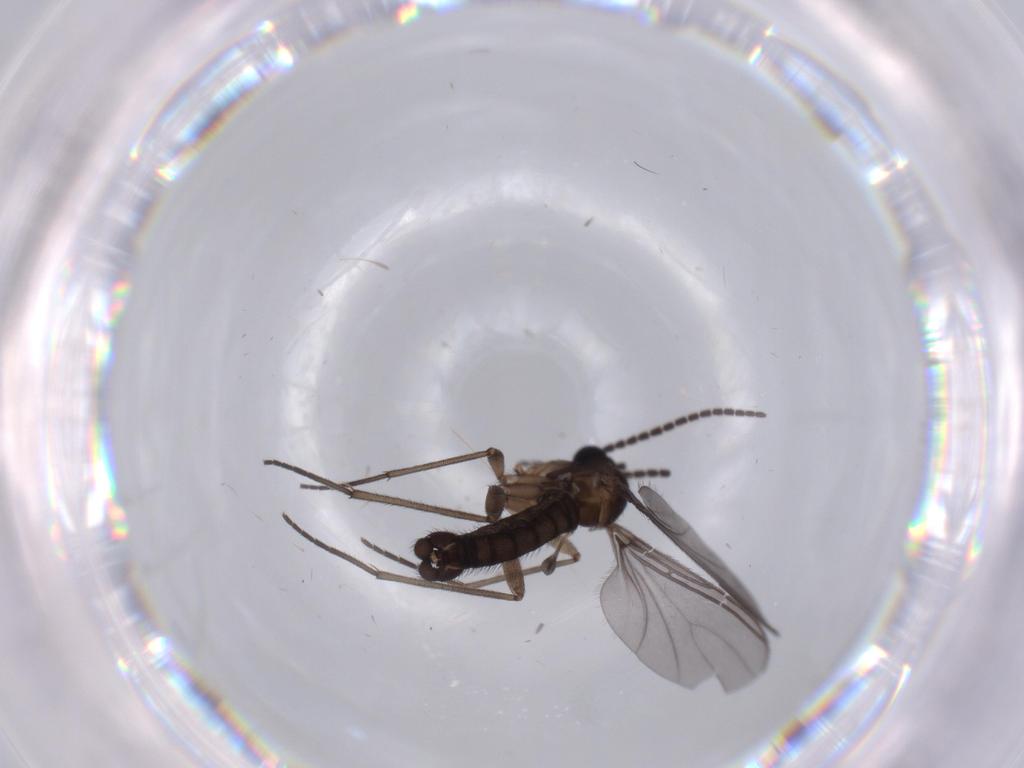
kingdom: Animalia
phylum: Arthropoda
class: Insecta
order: Diptera
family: Sciaridae
